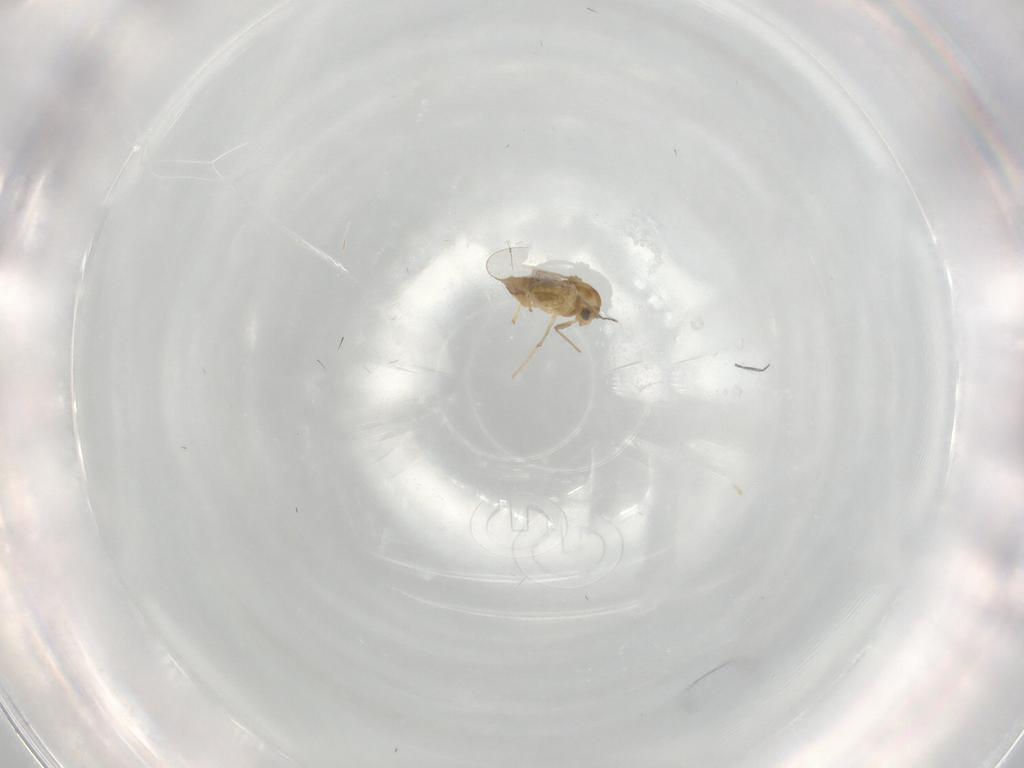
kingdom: Animalia
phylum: Arthropoda
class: Insecta
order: Diptera
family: Chironomidae
